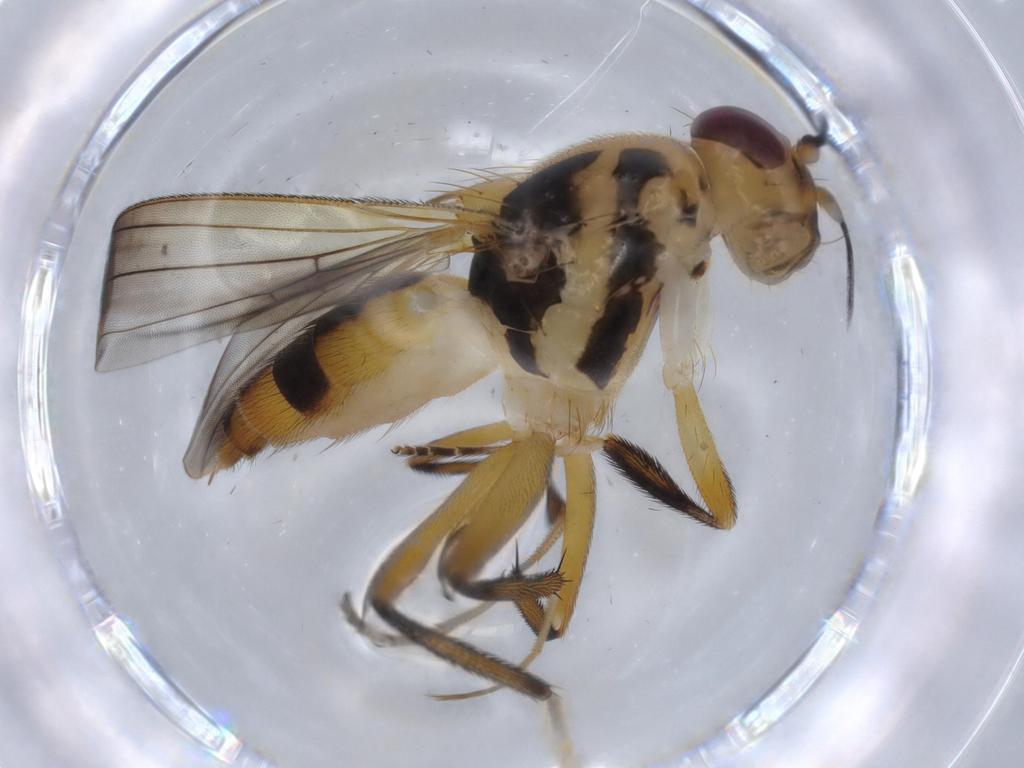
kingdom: Animalia
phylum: Arthropoda
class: Insecta
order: Diptera
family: Clusiidae
